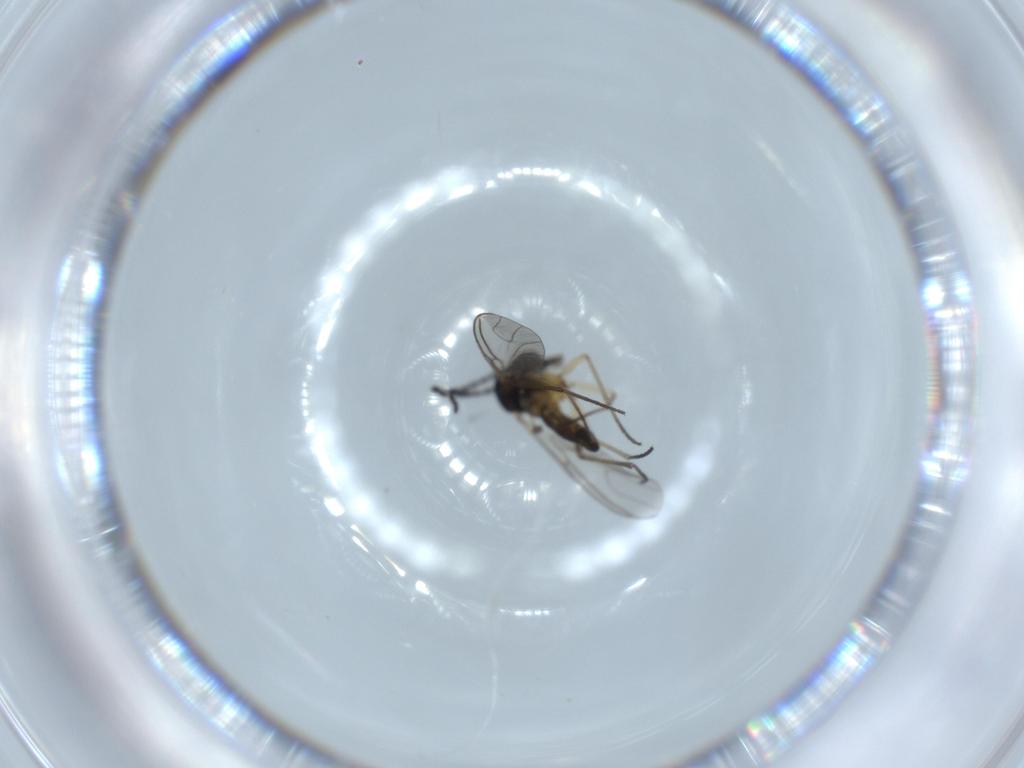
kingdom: Animalia
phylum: Arthropoda
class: Insecta
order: Diptera
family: Sciaridae
